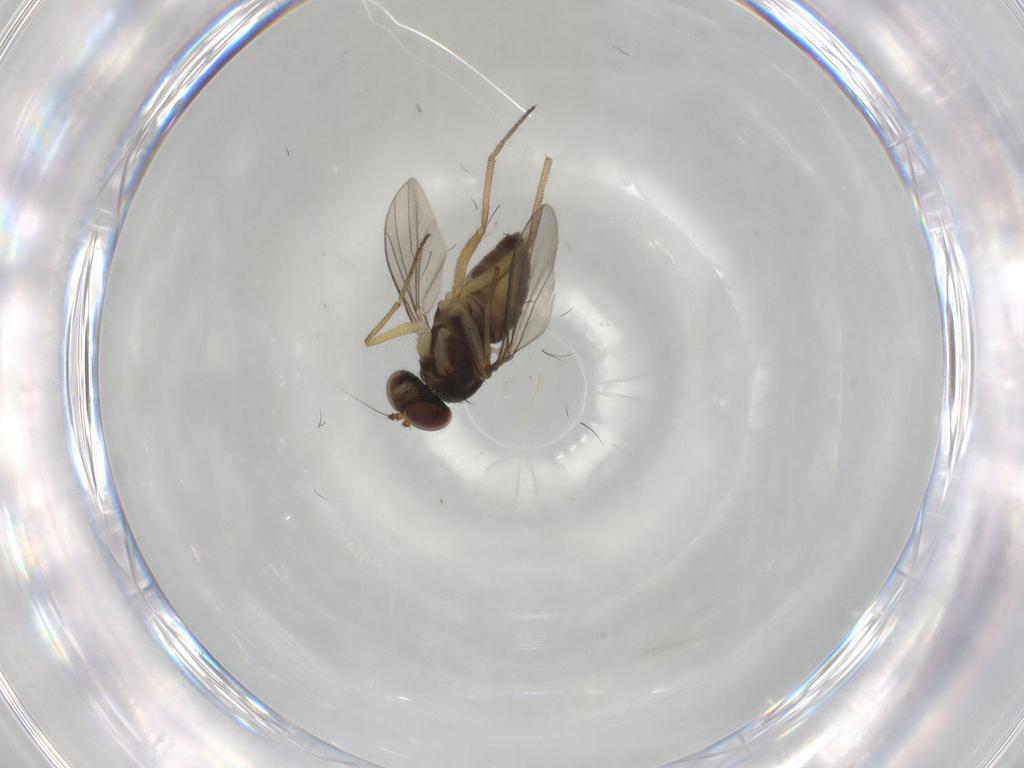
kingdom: Animalia
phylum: Arthropoda
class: Insecta
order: Diptera
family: Dolichopodidae
